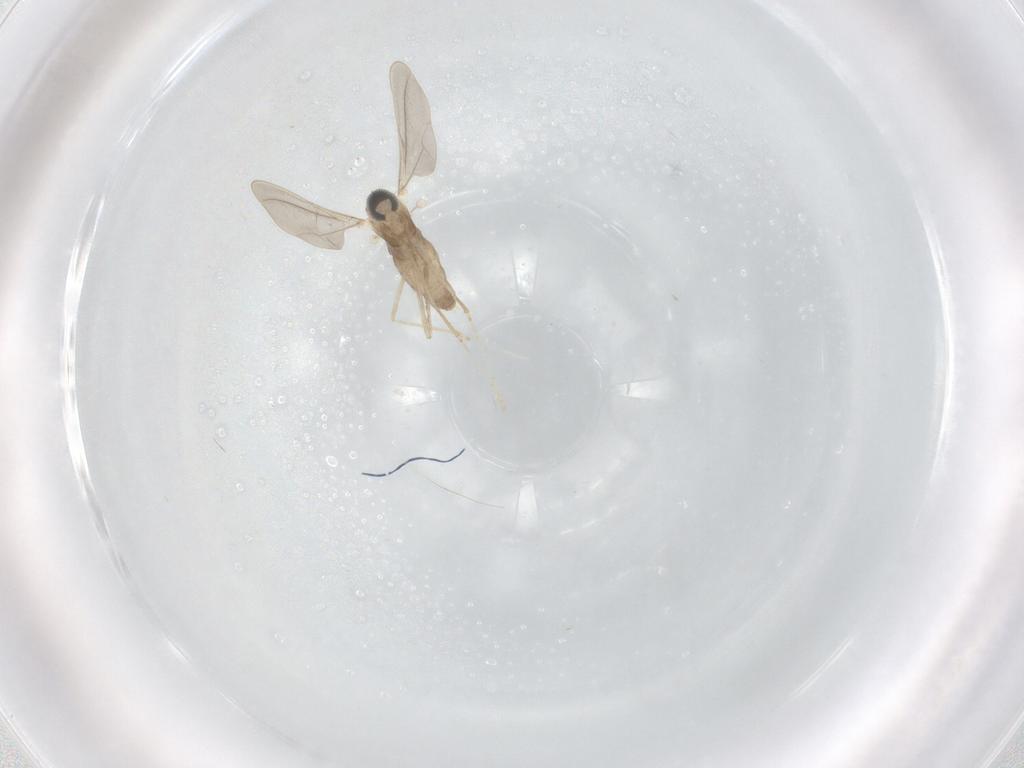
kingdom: Animalia
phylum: Arthropoda
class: Insecta
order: Diptera
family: Cecidomyiidae
